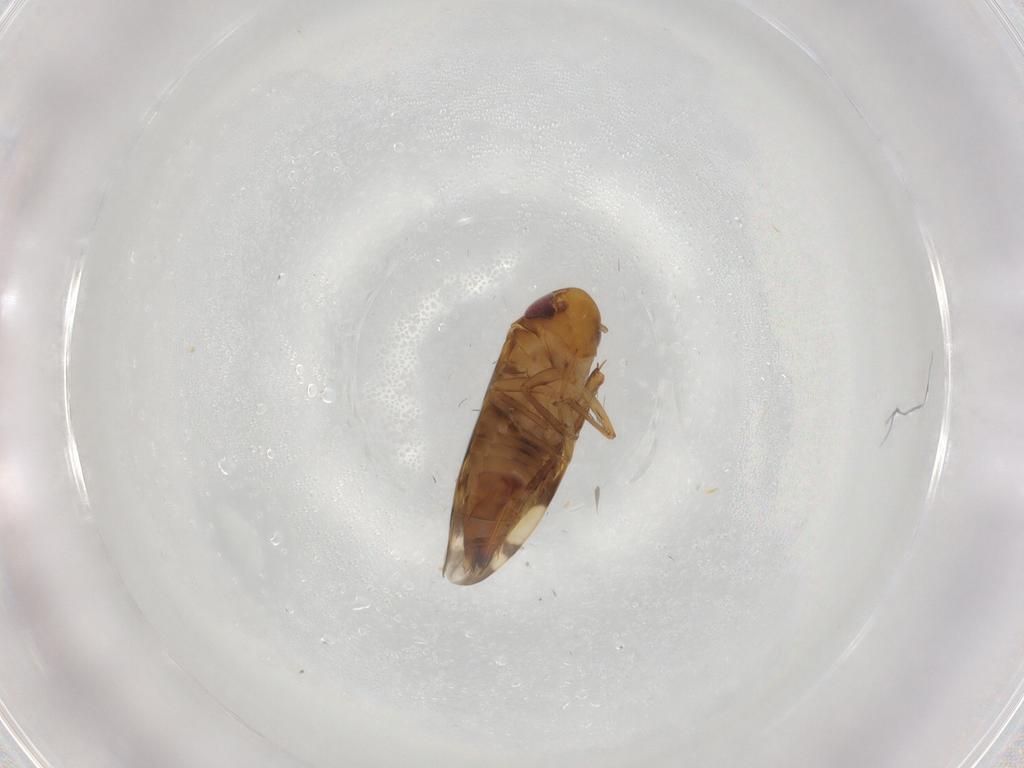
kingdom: Animalia
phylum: Arthropoda
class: Insecta
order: Hemiptera
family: Cicadellidae
